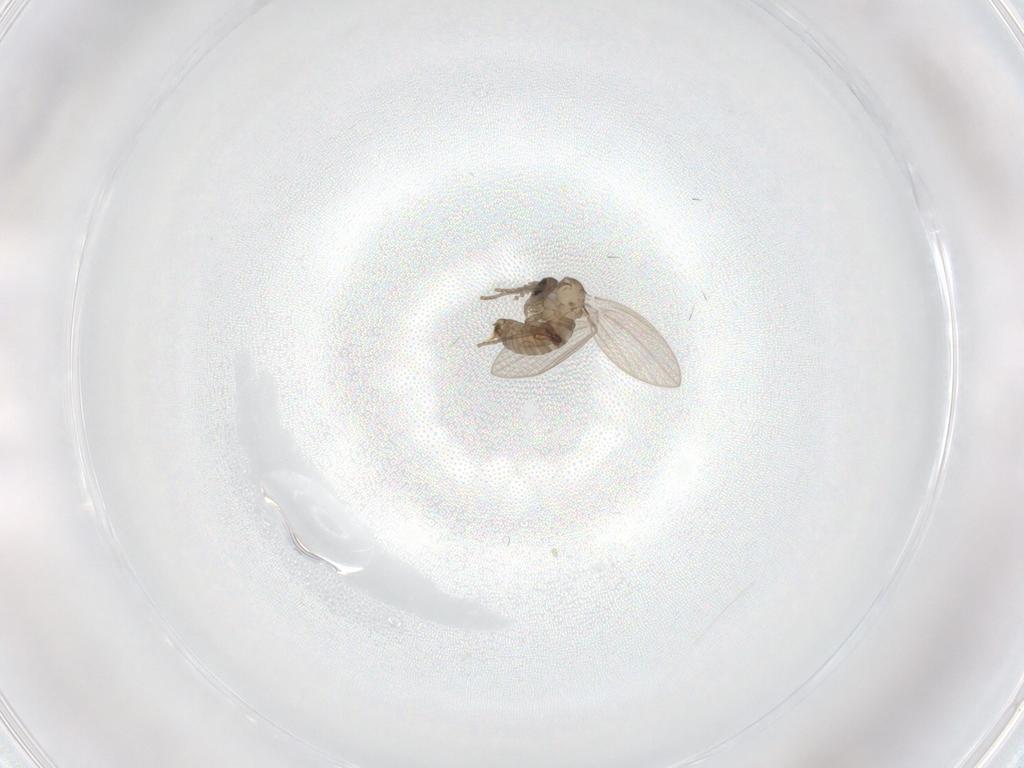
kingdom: Animalia
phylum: Arthropoda
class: Insecta
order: Diptera
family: Psychodidae
